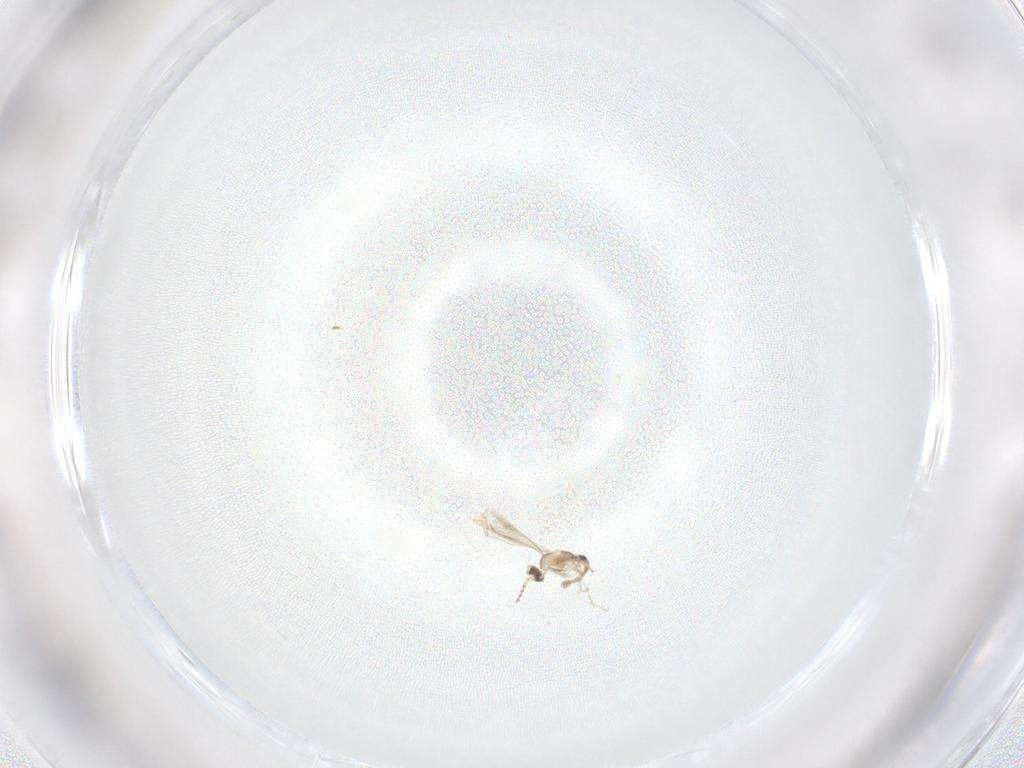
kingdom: Animalia
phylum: Arthropoda
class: Insecta
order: Diptera
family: Cecidomyiidae
